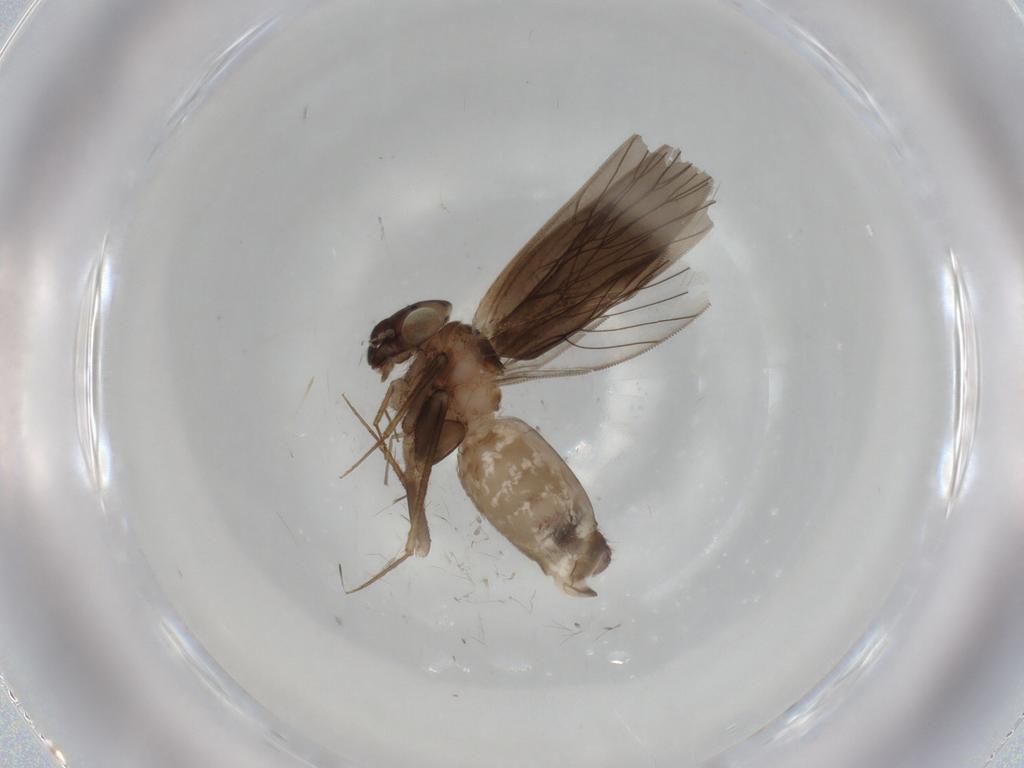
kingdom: Animalia
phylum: Arthropoda
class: Insecta
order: Psocodea
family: Lepidopsocidae
